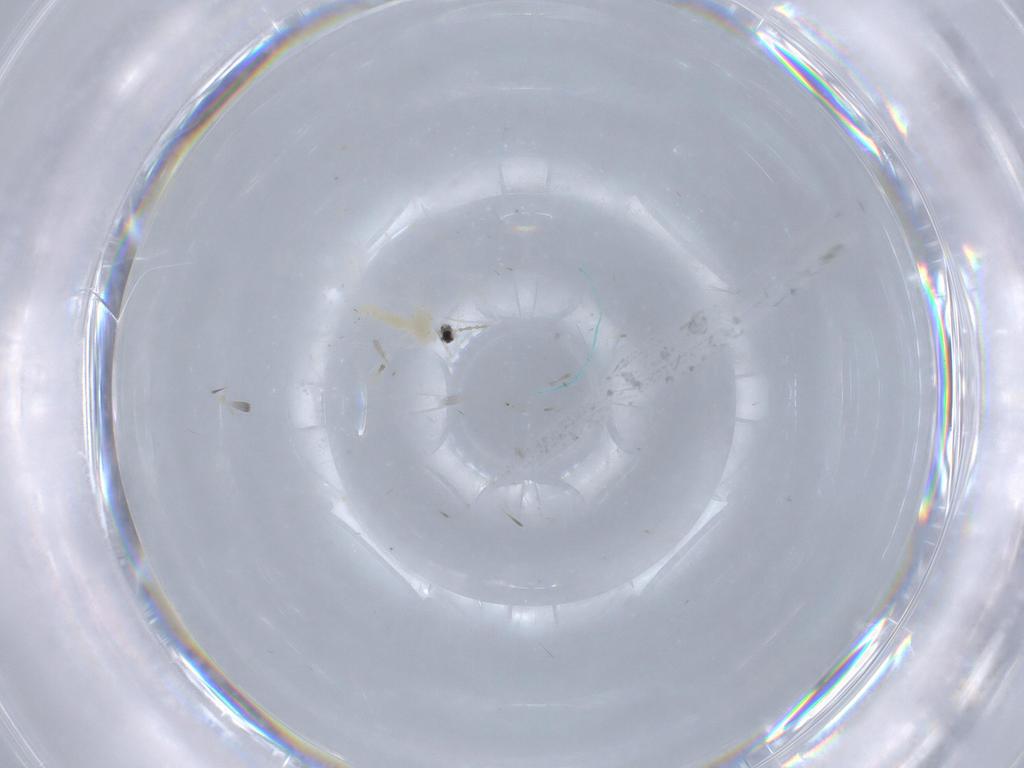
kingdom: Animalia
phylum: Arthropoda
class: Insecta
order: Diptera
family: Cecidomyiidae
